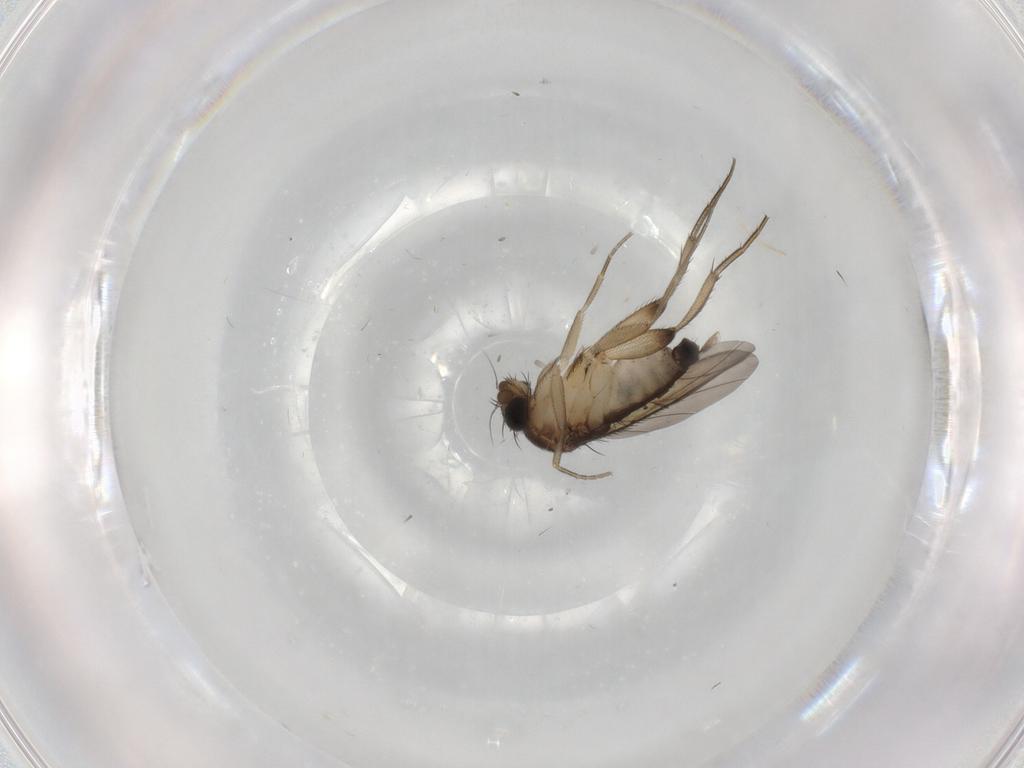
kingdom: Animalia
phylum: Arthropoda
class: Insecta
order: Diptera
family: Limoniidae
